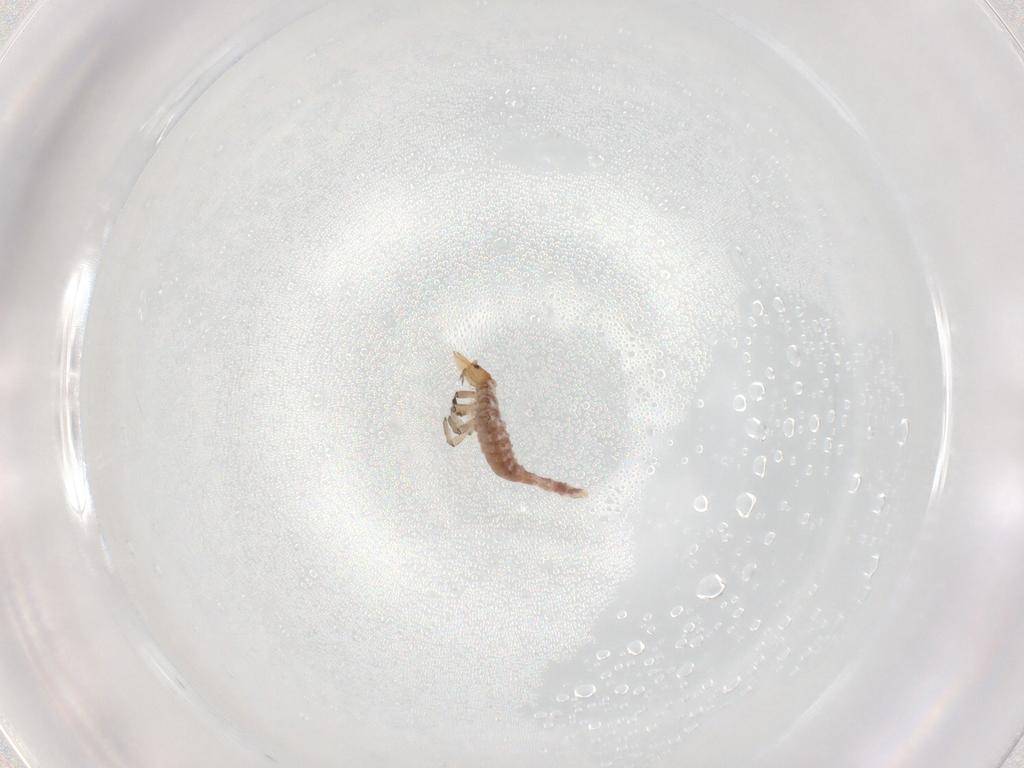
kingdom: Animalia
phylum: Arthropoda
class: Insecta
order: Neuroptera
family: Hemerobiidae
